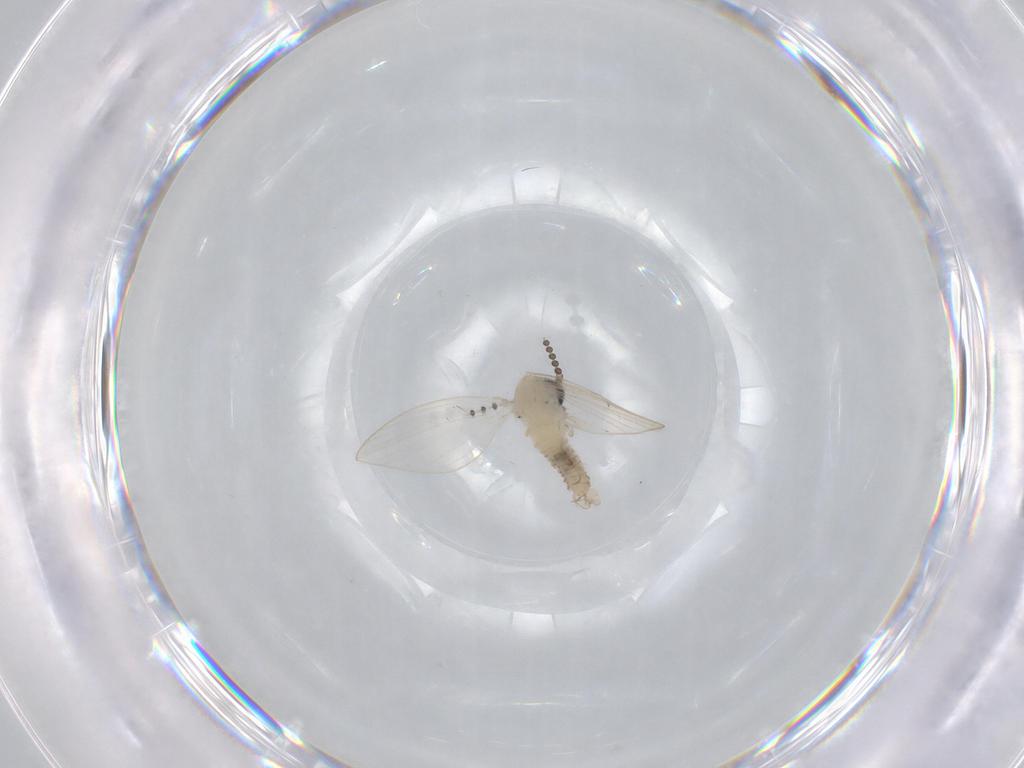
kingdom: Animalia
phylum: Arthropoda
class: Insecta
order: Diptera
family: Psychodidae
